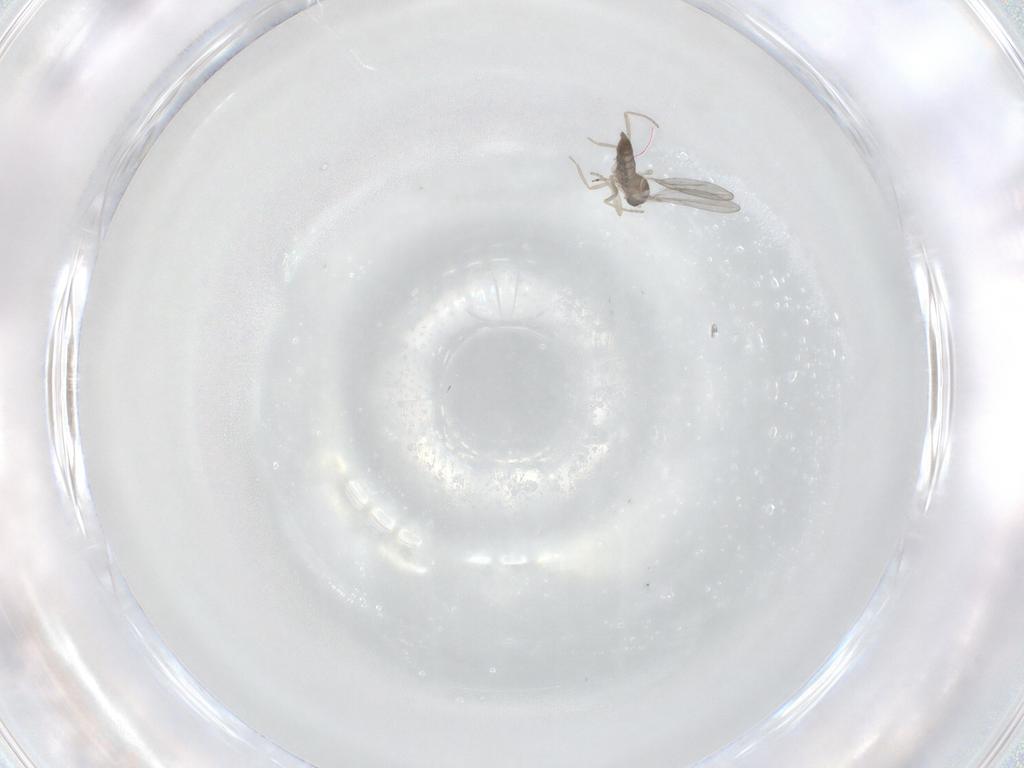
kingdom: Animalia
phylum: Arthropoda
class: Insecta
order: Diptera
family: Cecidomyiidae
